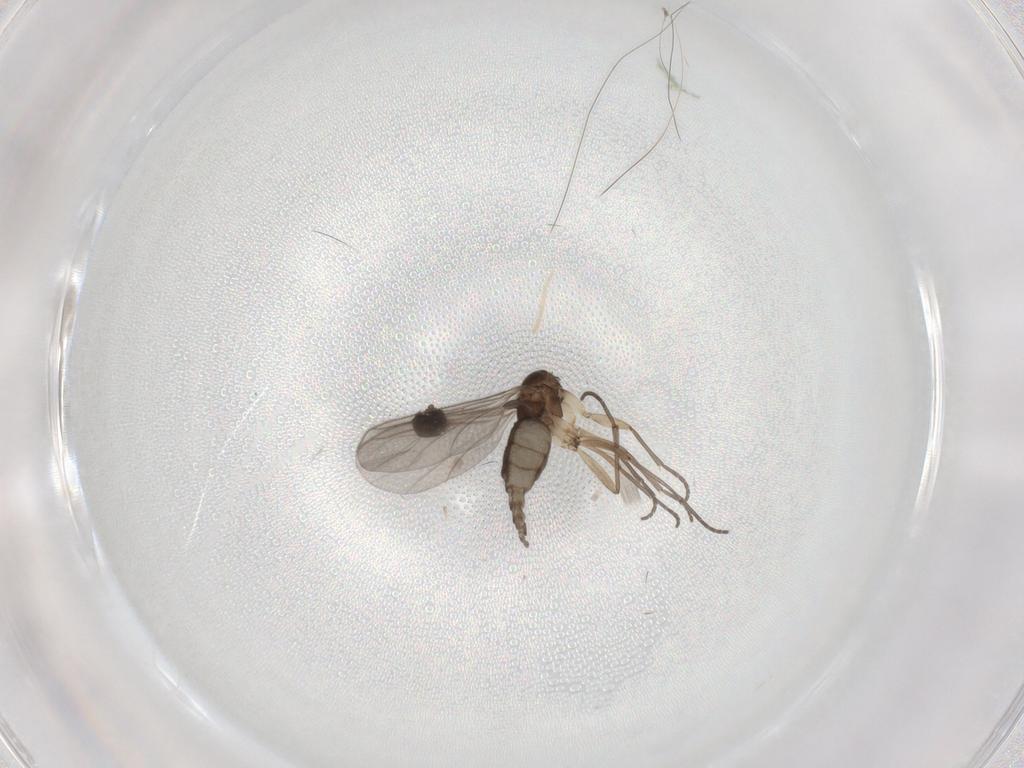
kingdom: Animalia
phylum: Arthropoda
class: Insecta
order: Diptera
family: Sciaridae
